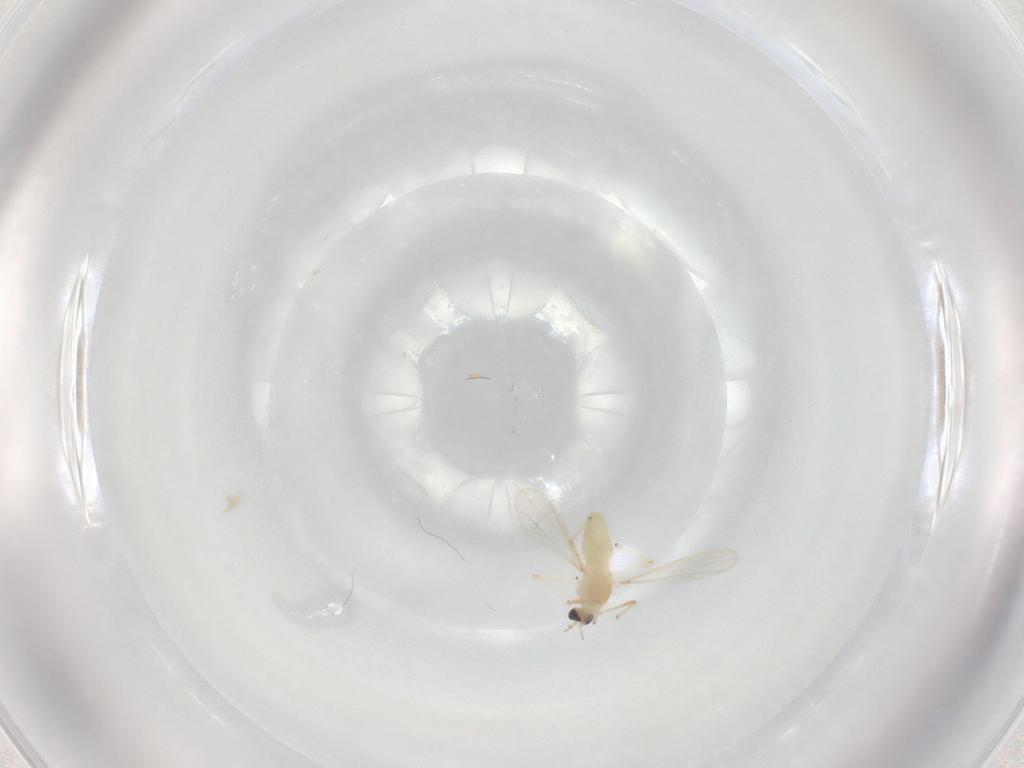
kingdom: Animalia
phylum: Arthropoda
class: Insecta
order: Diptera
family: Chironomidae
